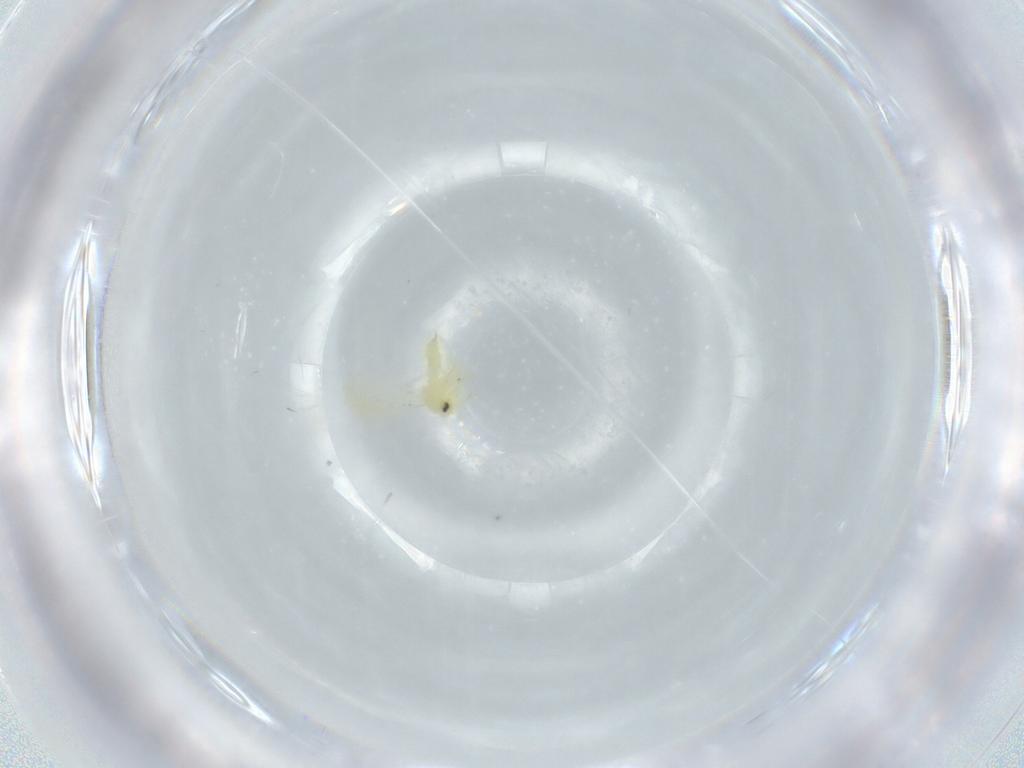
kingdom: Animalia
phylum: Arthropoda
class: Insecta
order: Hemiptera
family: Aleyrodidae
